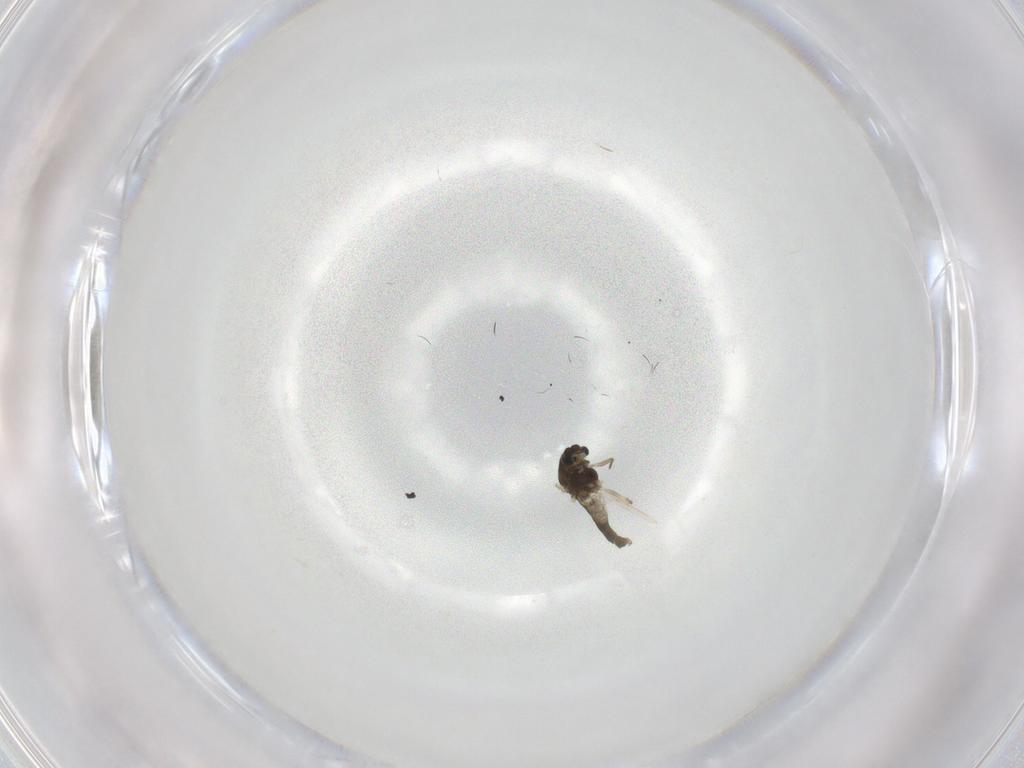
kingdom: Animalia
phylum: Arthropoda
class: Insecta
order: Diptera
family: Chironomidae
